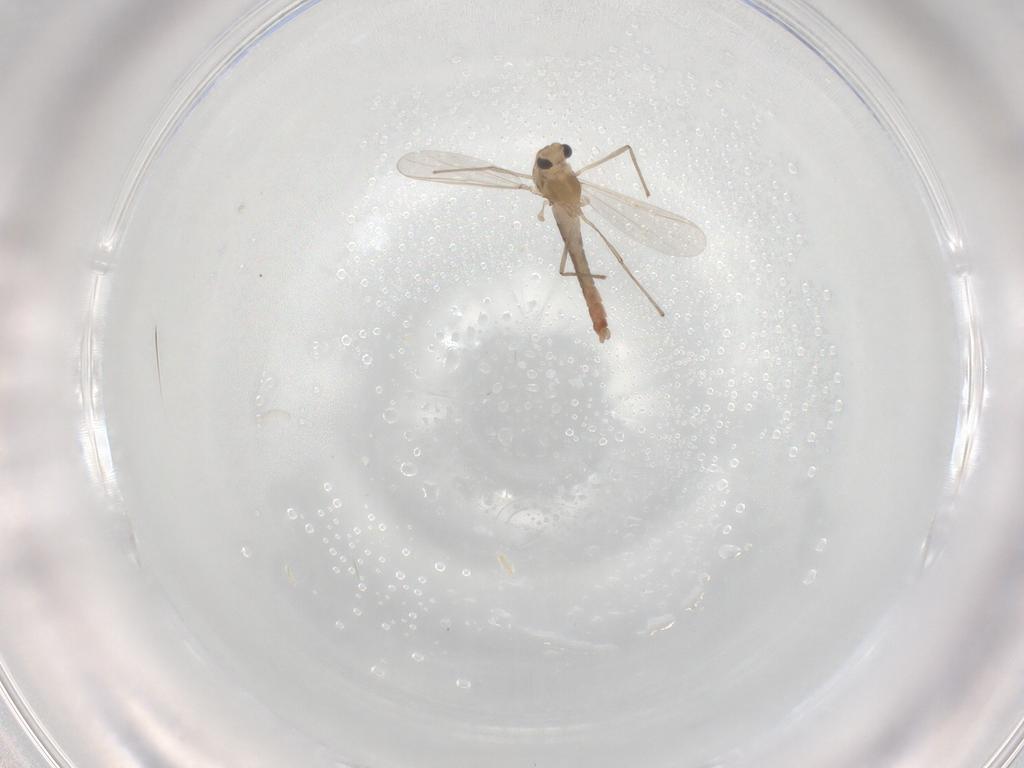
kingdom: Animalia
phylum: Arthropoda
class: Insecta
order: Diptera
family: Chironomidae
